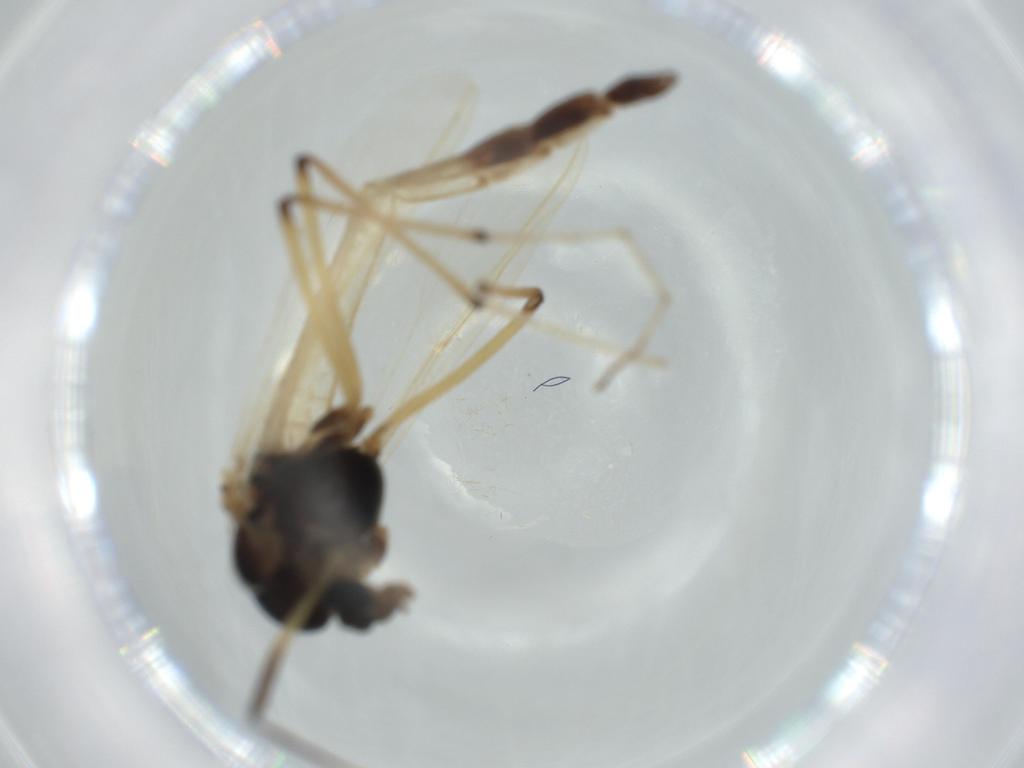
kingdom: Animalia
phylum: Arthropoda
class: Insecta
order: Diptera
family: Chironomidae
